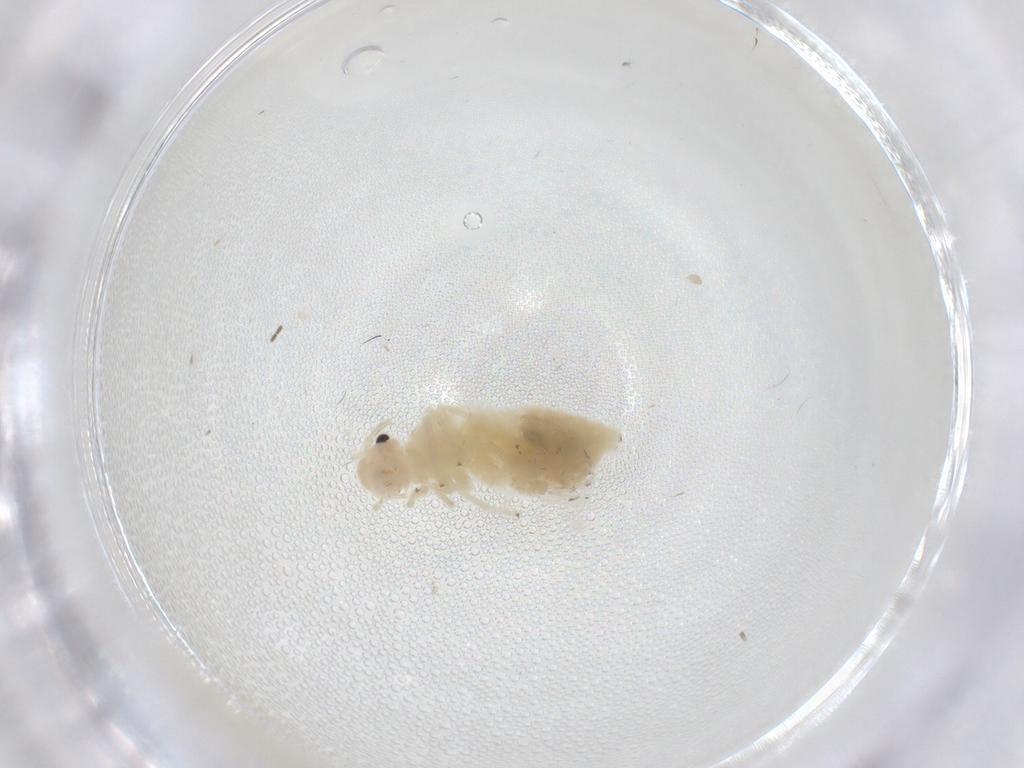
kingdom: Animalia
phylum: Arthropoda
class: Insecta
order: Psocodea
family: Caeciliusidae
